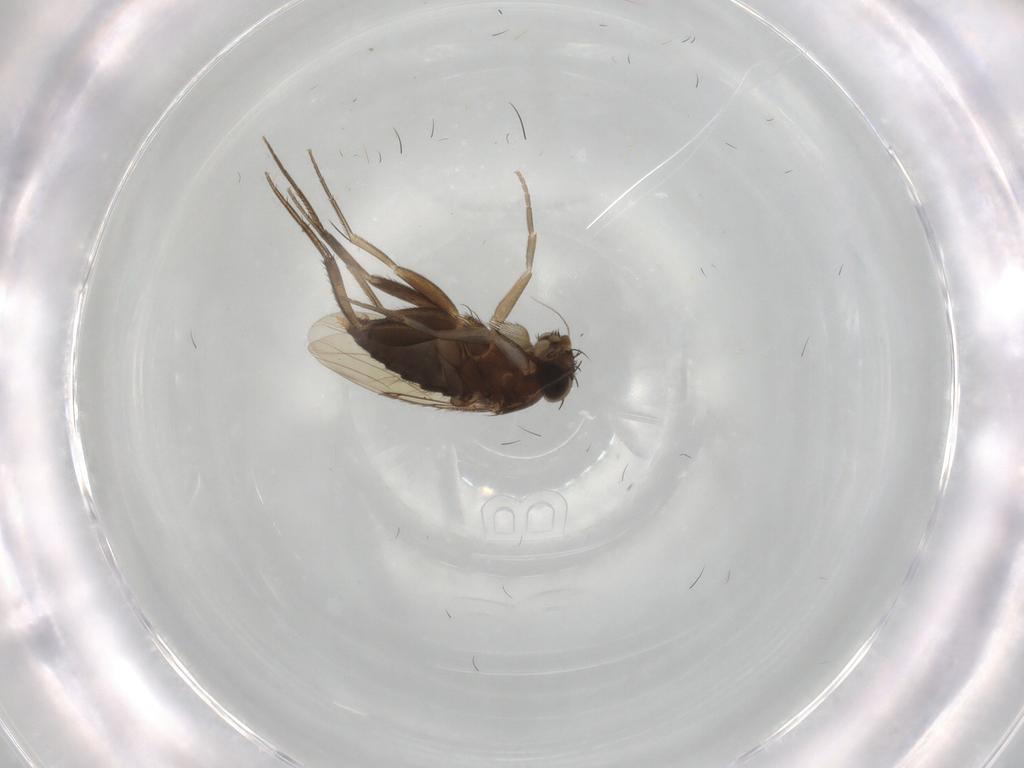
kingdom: Animalia
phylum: Arthropoda
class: Insecta
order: Diptera
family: Phoridae
